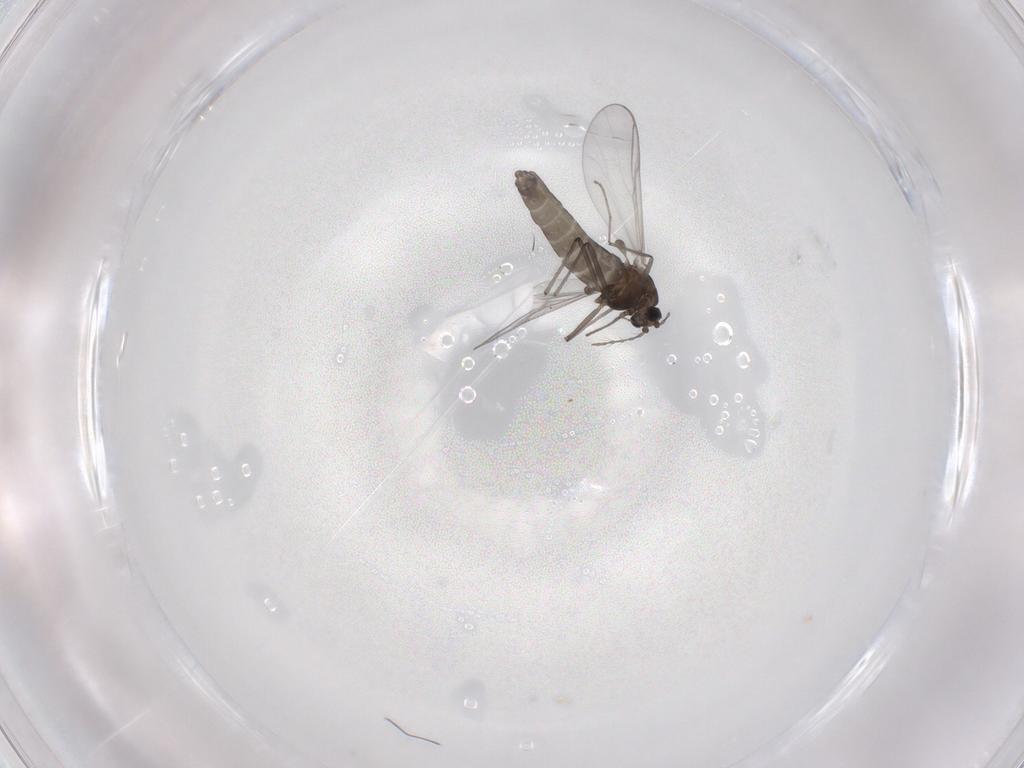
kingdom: Animalia
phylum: Arthropoda
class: Insecta
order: Diptera
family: Chironomidae
